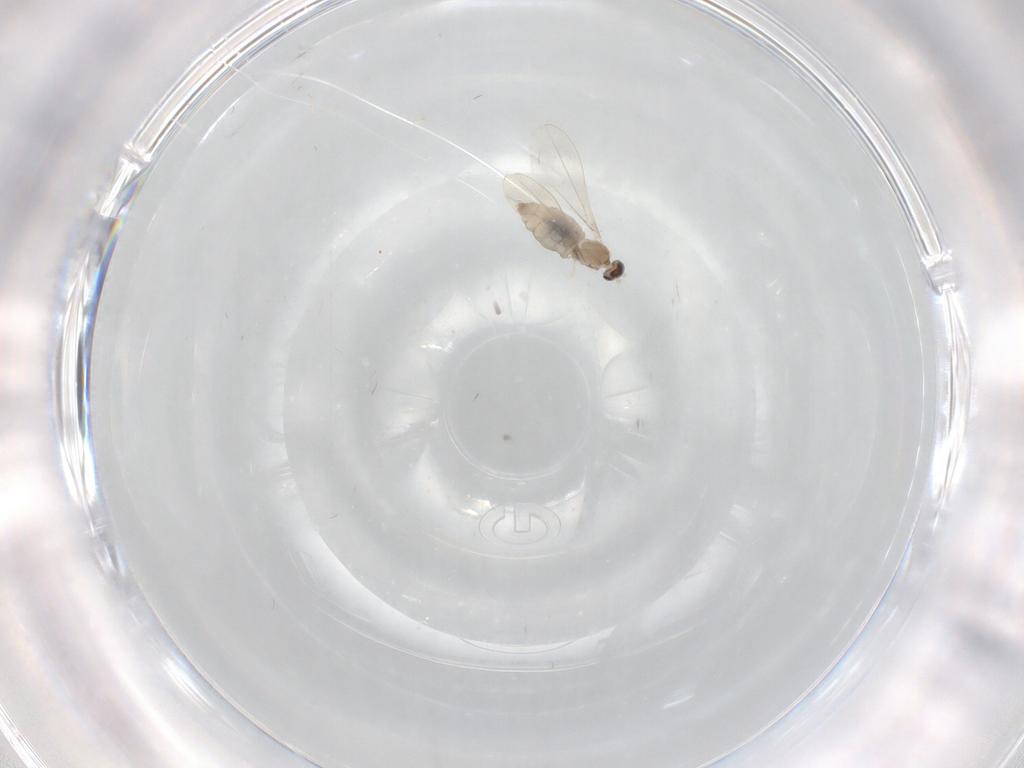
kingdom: Animalia
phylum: Arthropoda
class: Insecta
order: Diptera
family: Cecidomyiidae
